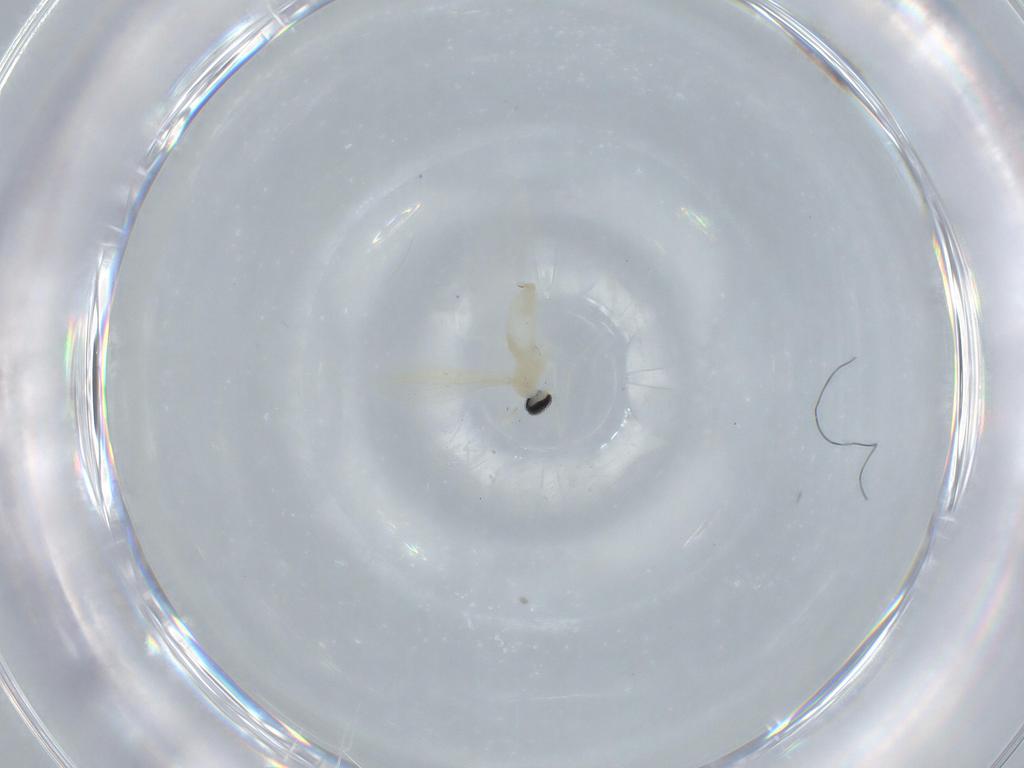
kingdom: Animalia
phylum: Arthropoda
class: Insecta
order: Diptera
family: Cecidomyiidae
